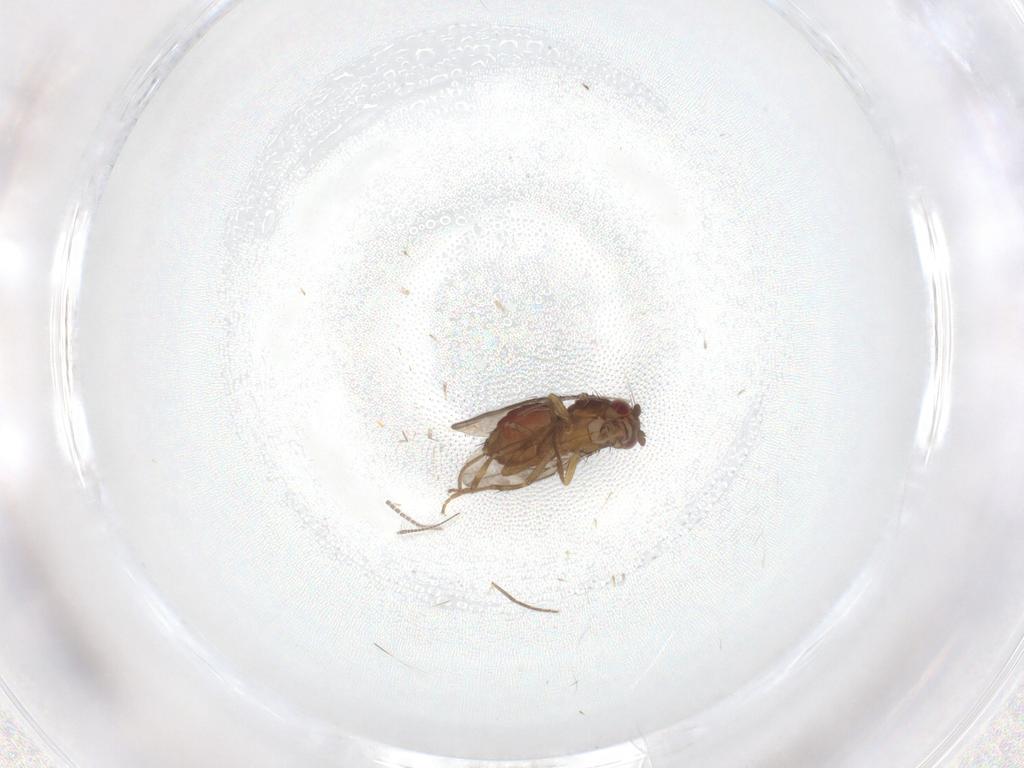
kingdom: Animalia
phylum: Arthropoda
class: Insecta
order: Diptera
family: Sphaeroceridae
